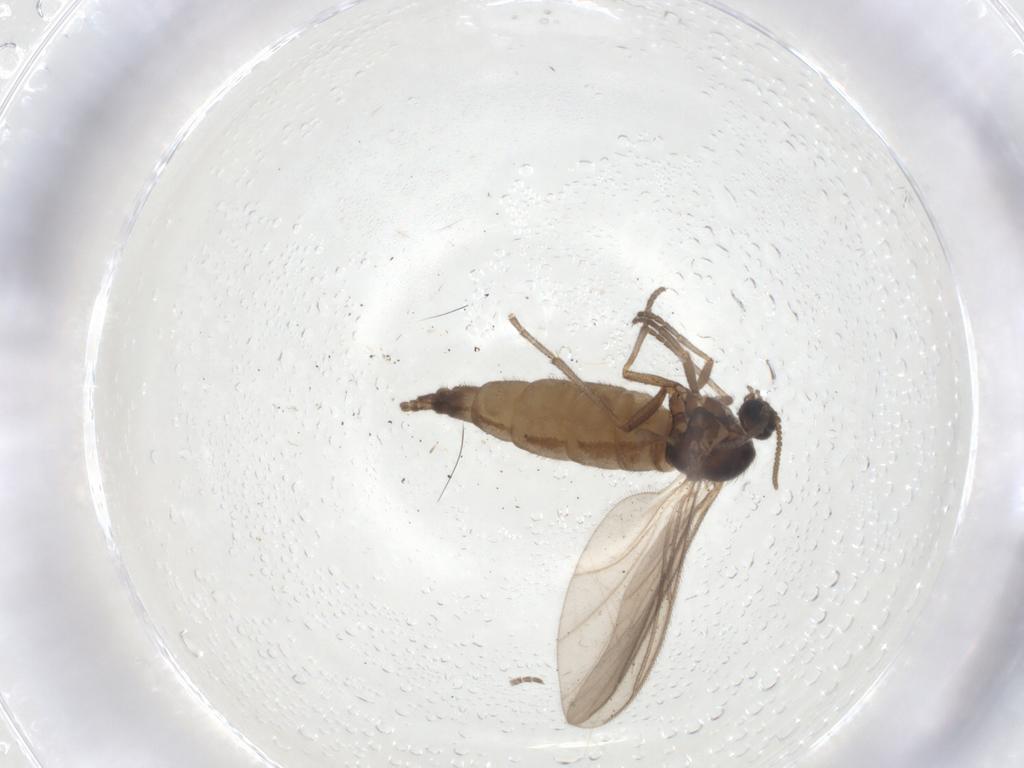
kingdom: Animalia
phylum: Arthropoda
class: Insecta
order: Diptera
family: Sciaridae
